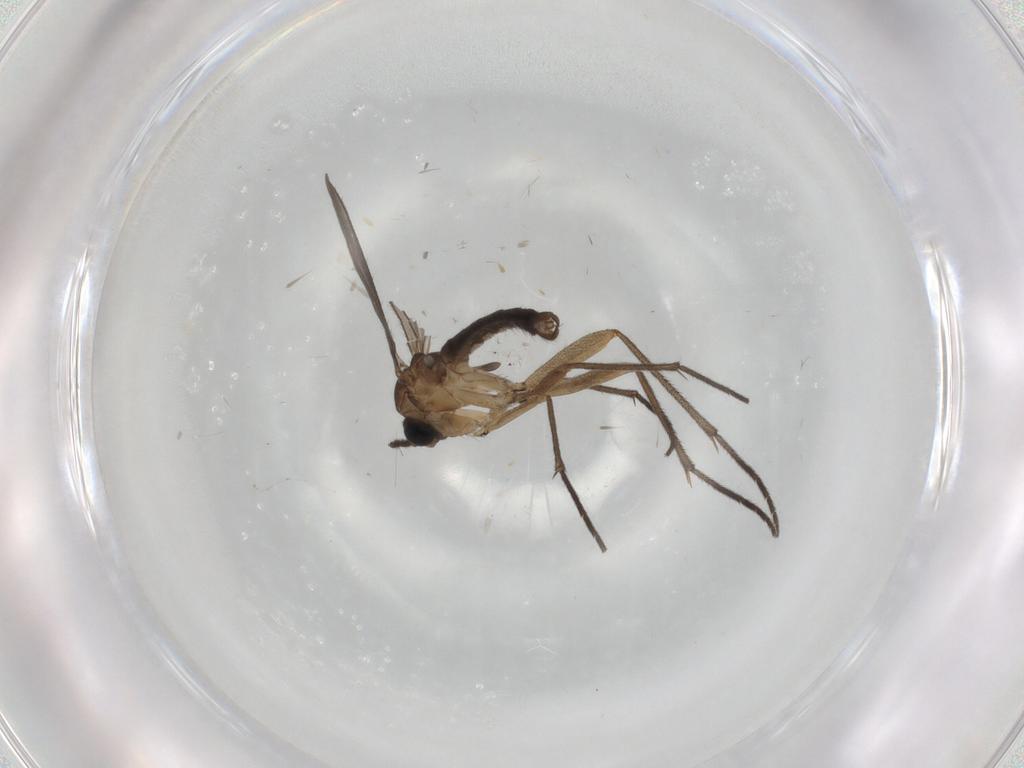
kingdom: Animalia
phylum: Arthropoda
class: Insecta
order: Diptera
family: Sciaridae
